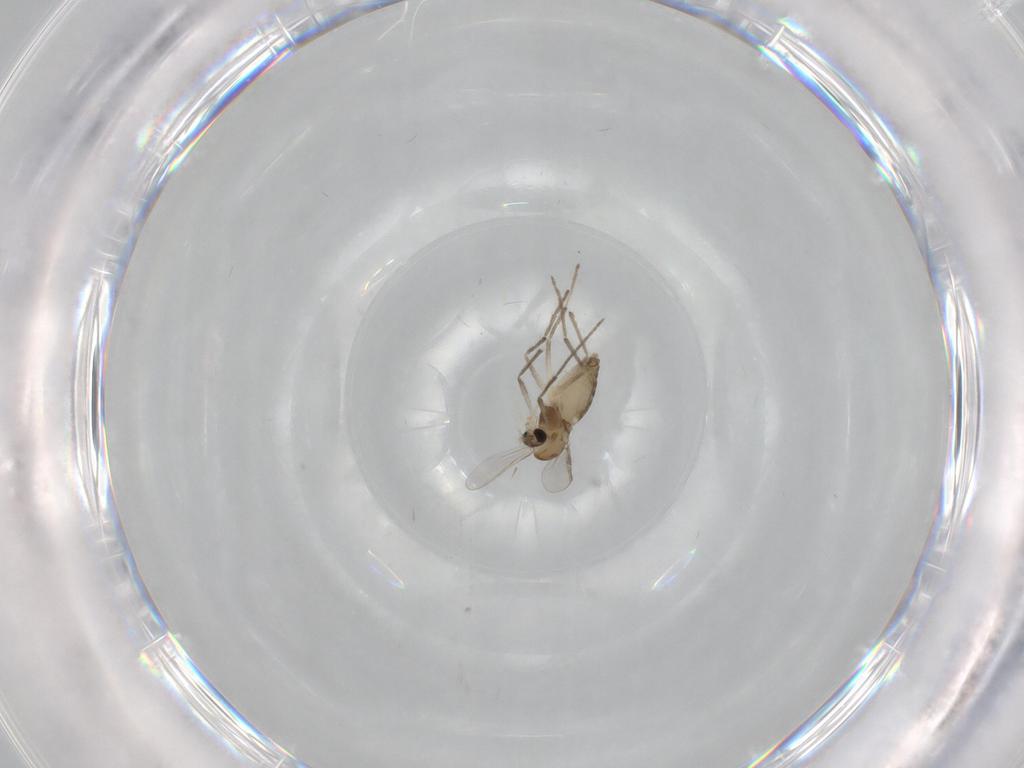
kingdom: Animalia
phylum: Arthropoda
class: Insecta
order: Diptera
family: Chironomidae
